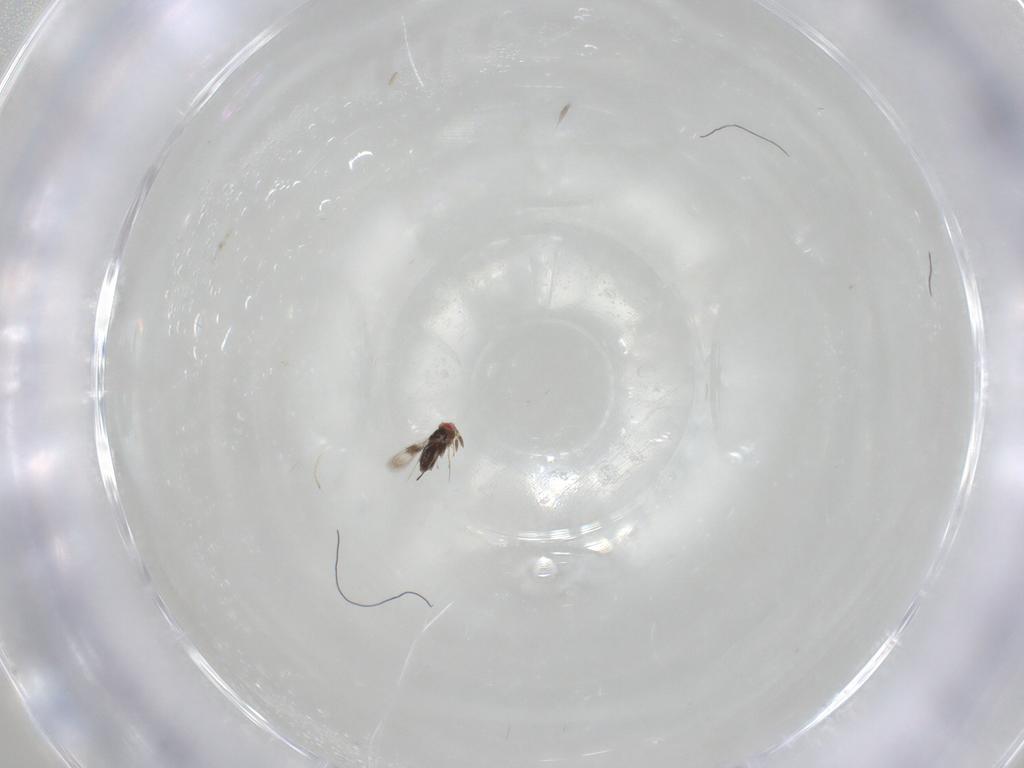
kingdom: Animalia
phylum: Arthropoda
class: Insecta
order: Hymenoptera
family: Azotidae
